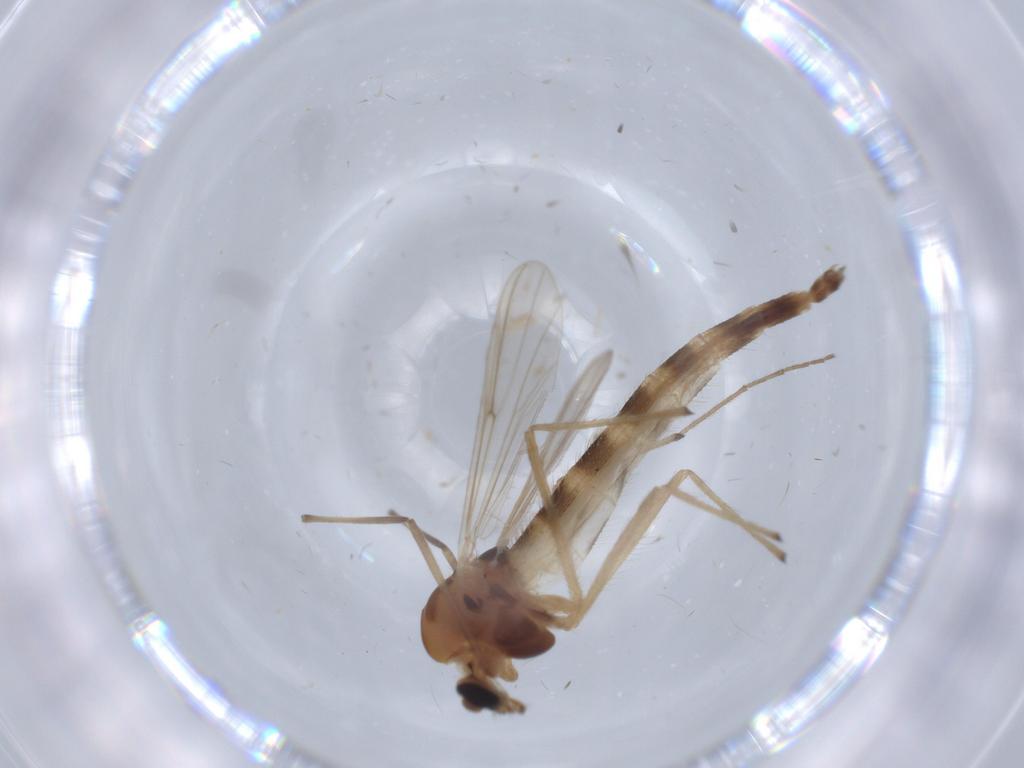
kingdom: Animalia
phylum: Arthropoda
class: Insecta
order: Diptera
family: Chironomidae
